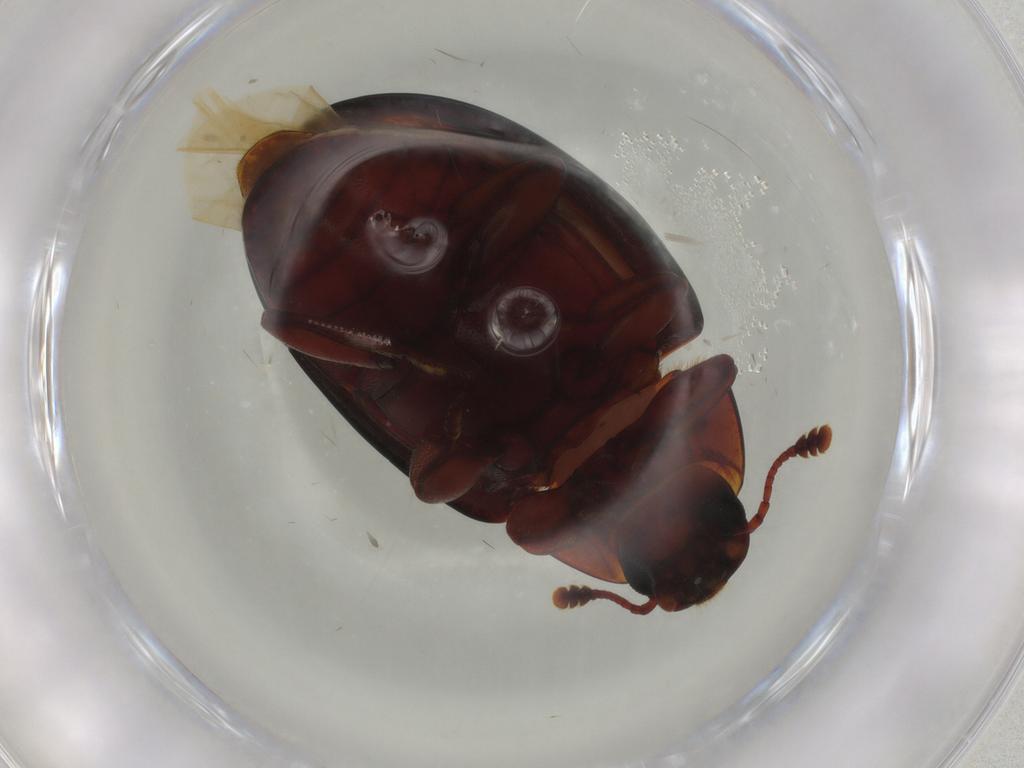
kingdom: Animalia
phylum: Arthropoda
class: Insecta
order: Coleoptera
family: Zopheridae
